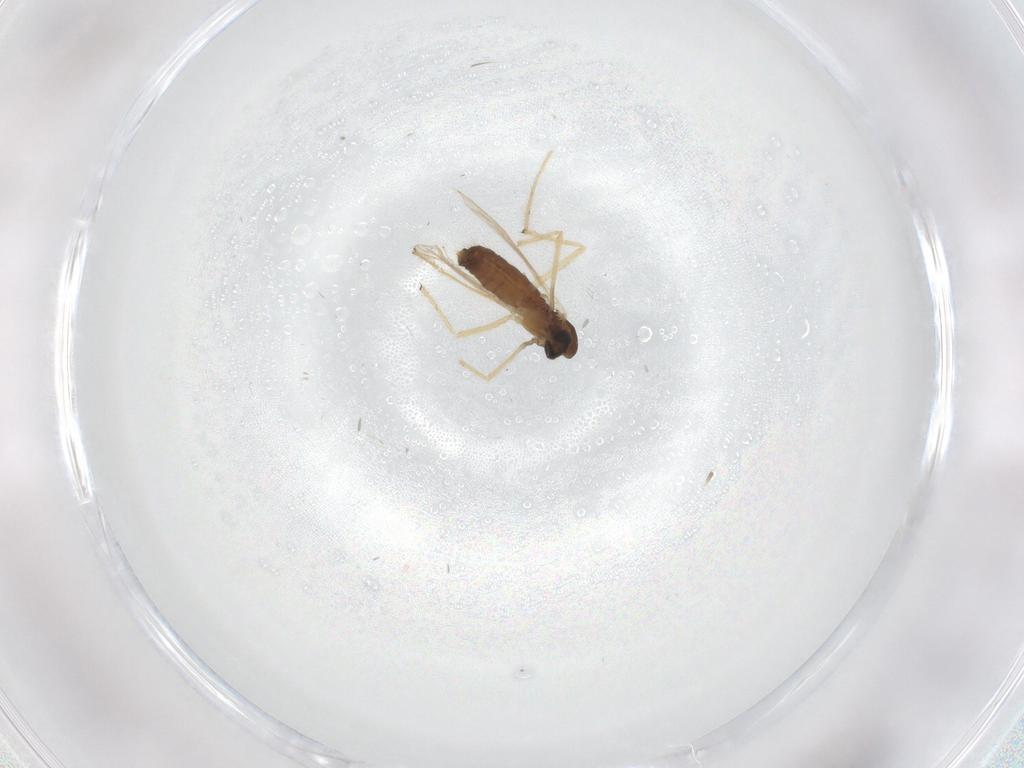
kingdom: Animalia
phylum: Arthropoda
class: Insecta
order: Diptera
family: Chironomidae
